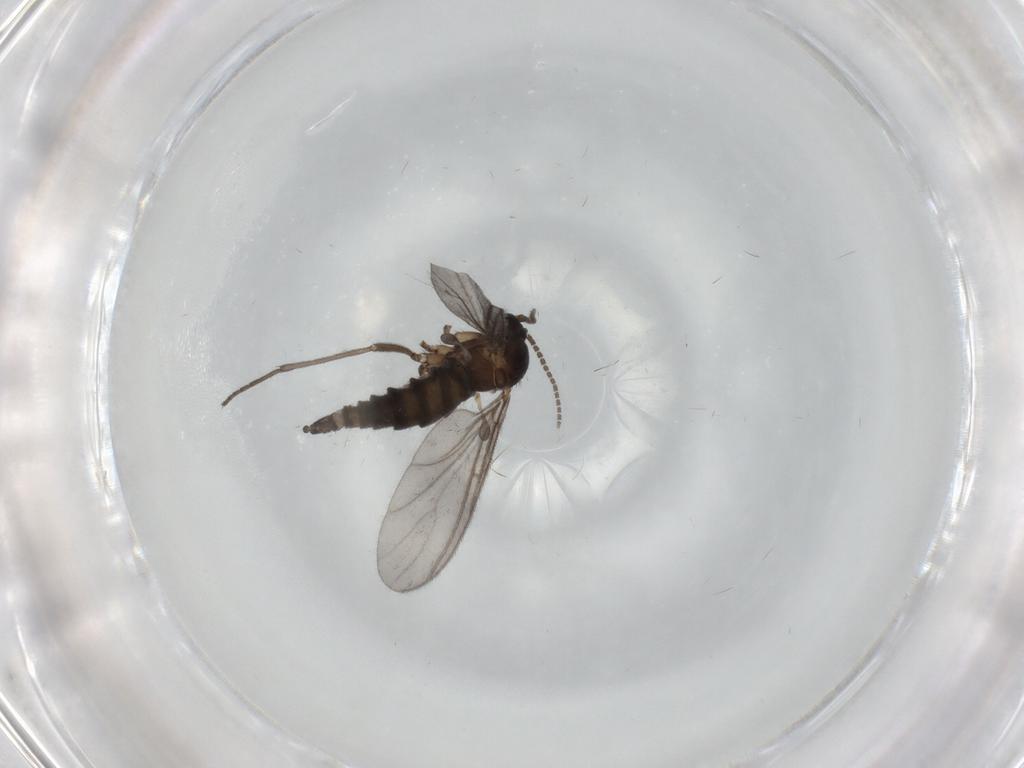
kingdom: Animalia
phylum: Arthropoda
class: Insecta
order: Diptera
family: Sciaridae
